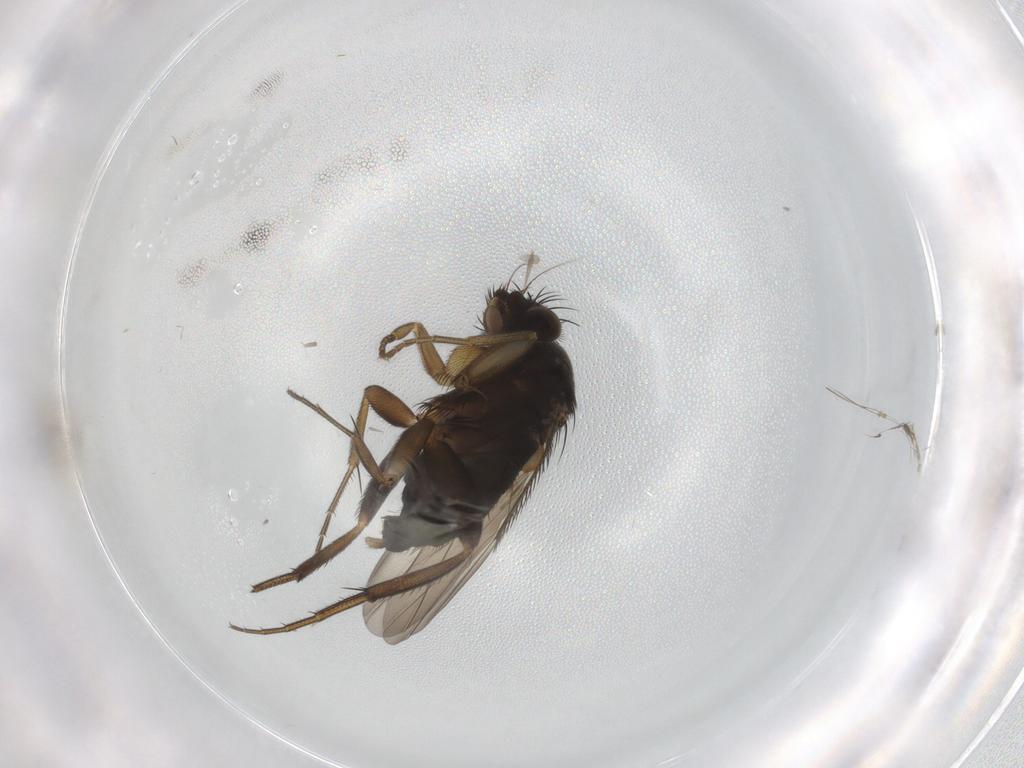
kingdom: Animalia
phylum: Arthropoda
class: Insecta
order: Diptera
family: Phoridae
